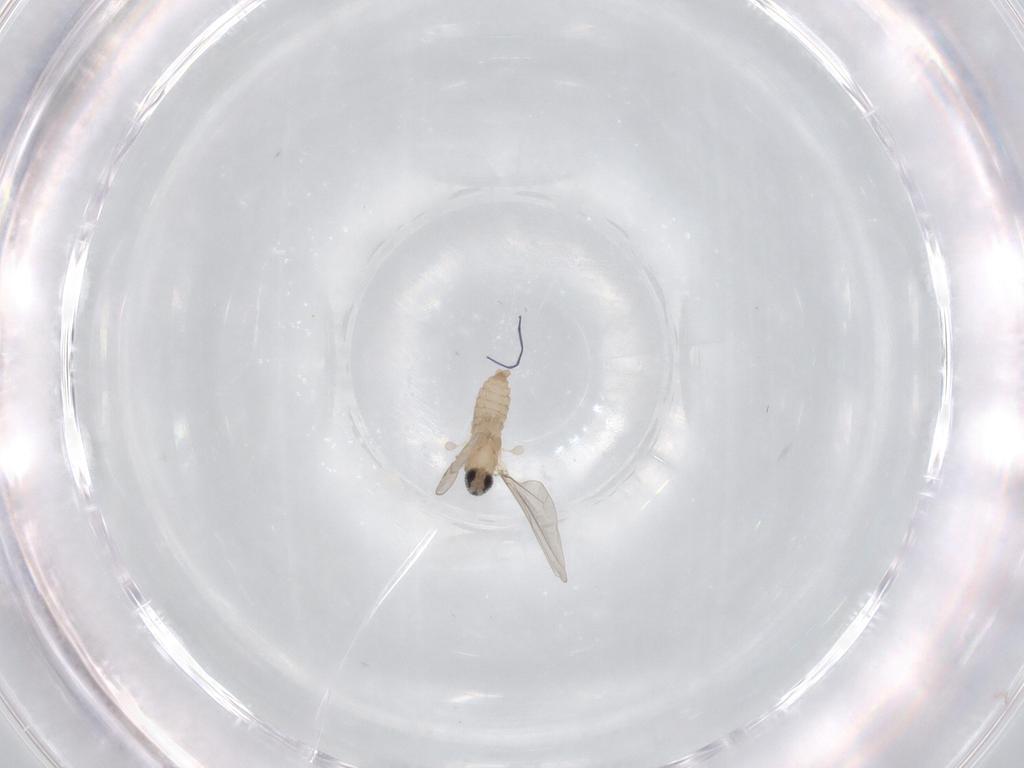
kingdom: Animalia
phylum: Arthropoda
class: Insecta
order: Diptera
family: Cecidomyiidae
